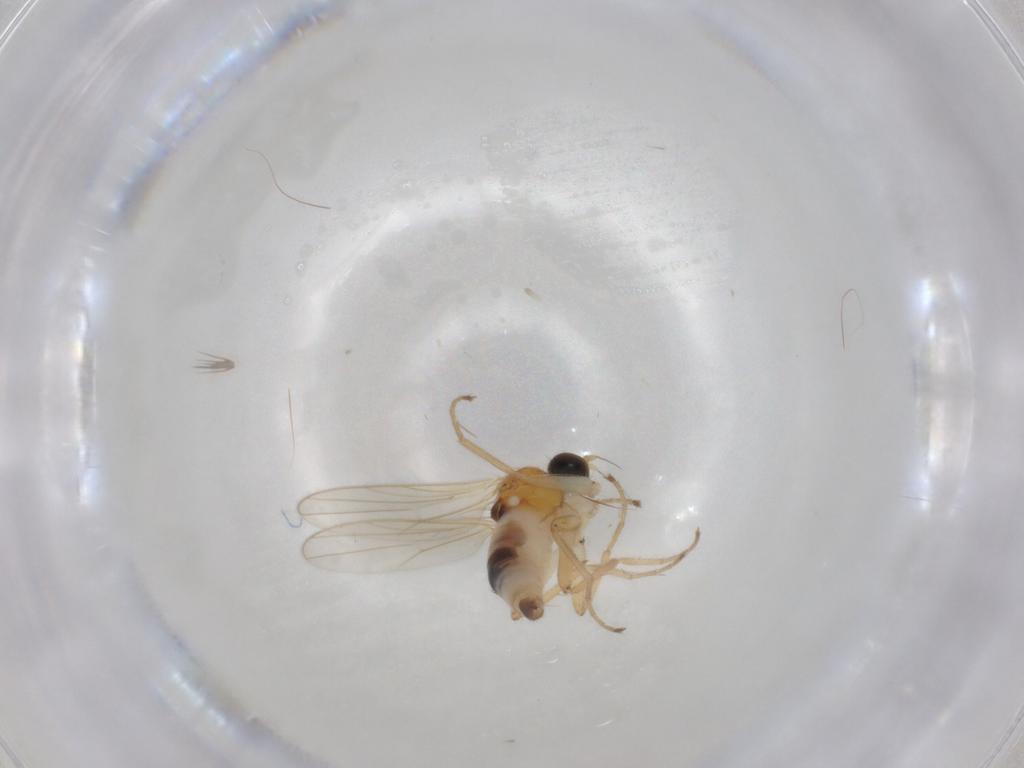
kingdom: Animalia
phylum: Arthropoda
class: Insecta
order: Diptera
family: Hybotidae
